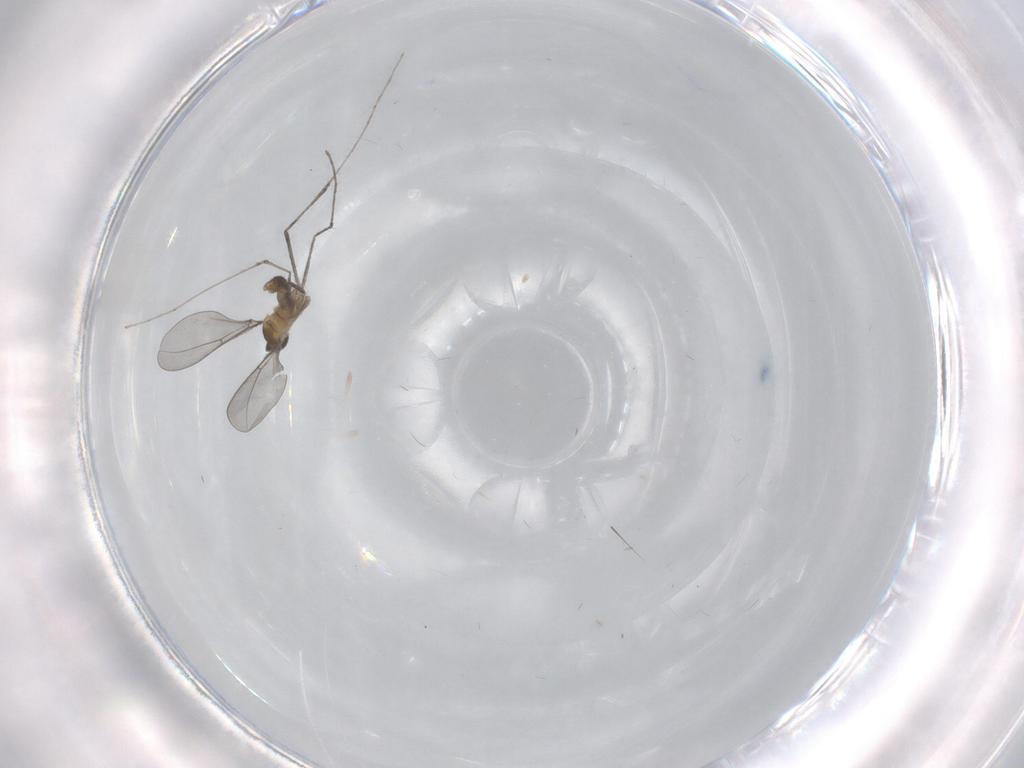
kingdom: Animalia
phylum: Arthropoda
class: Insecta
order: Diptera
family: Cecidomyiidae
